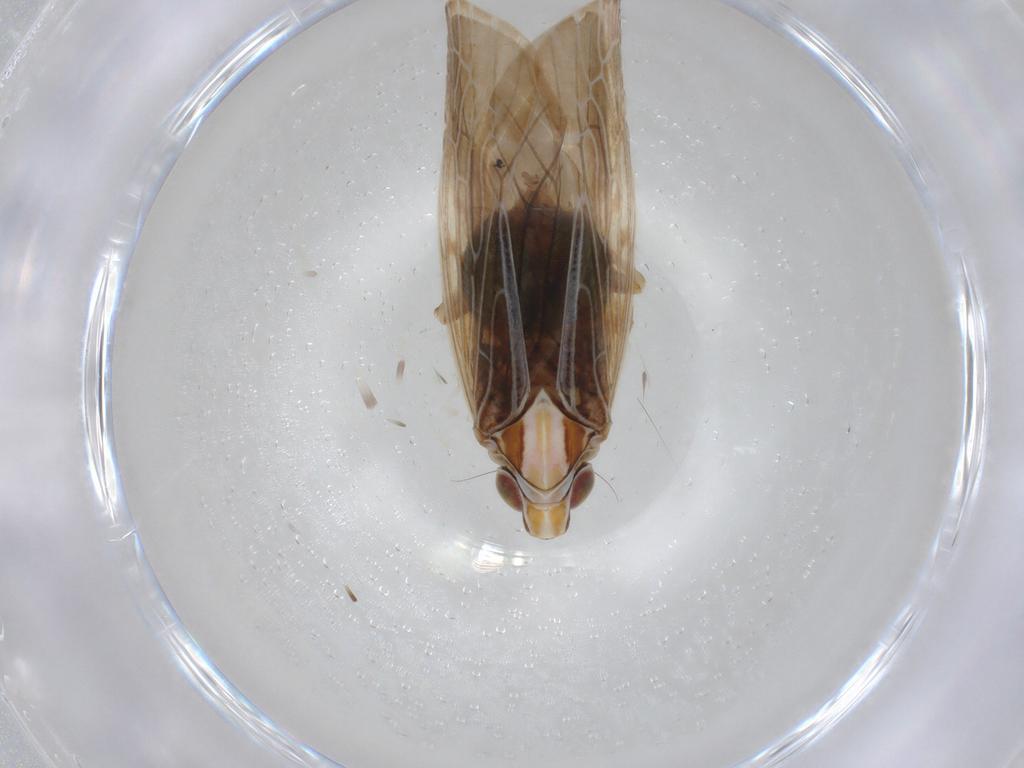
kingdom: Animalia
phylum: Arthropoda
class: Insecta
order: Hemiptera
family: Achilidae
